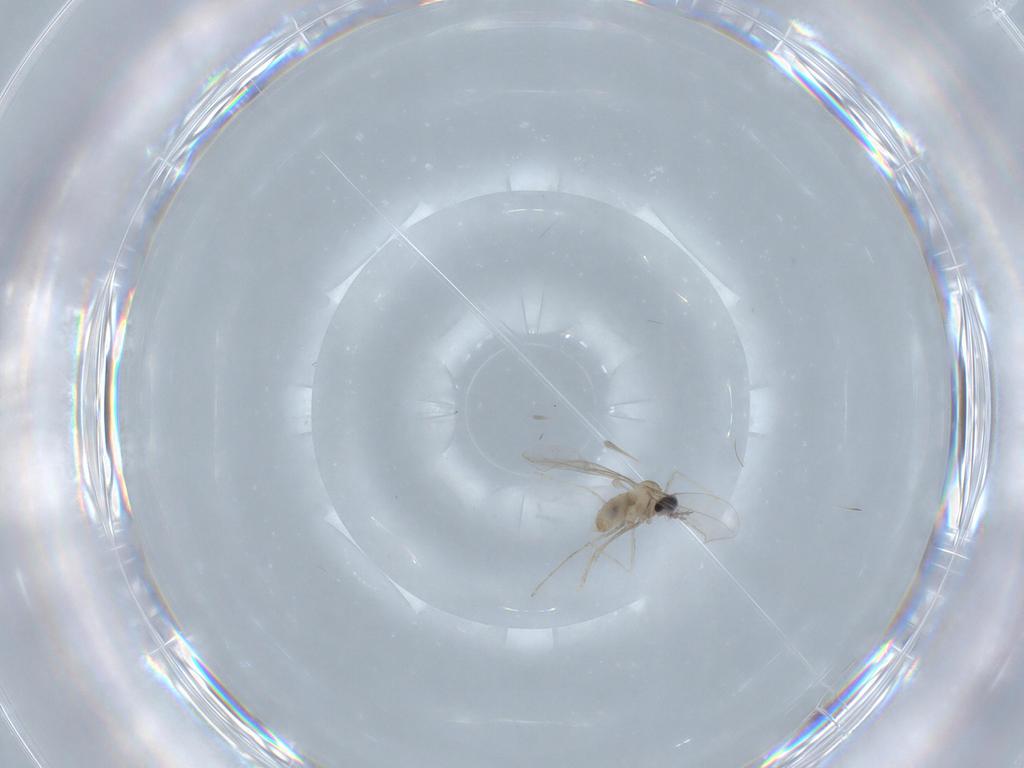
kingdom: Animalia
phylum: Arthropoda
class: Insecta
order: Diptera
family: Cecidomyiidae
